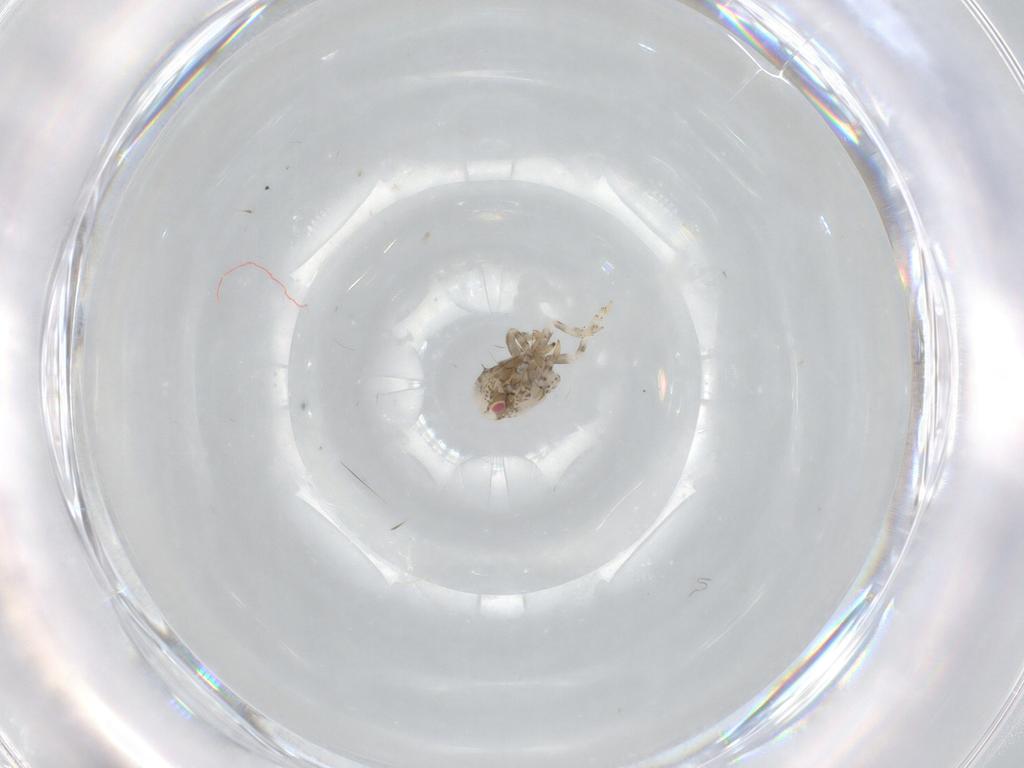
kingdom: Animalia
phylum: Arthropoda
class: Insecta
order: Hemiptera
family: Acanaloniidae
